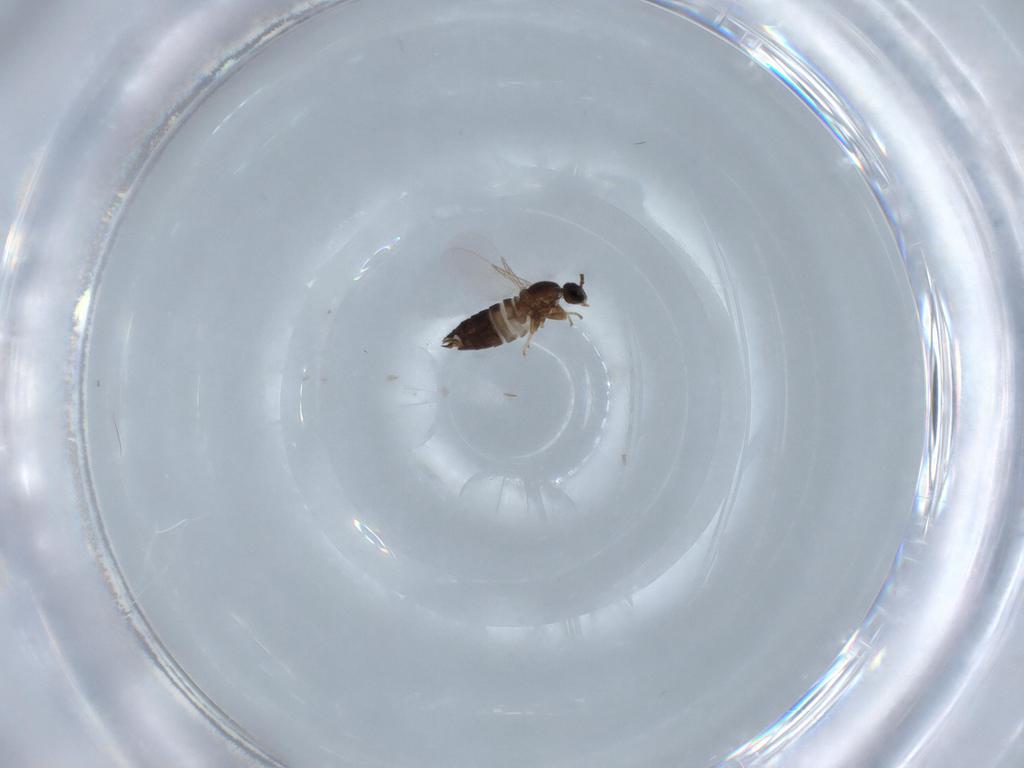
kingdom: Animalia
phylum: Arthropoda
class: Insecta
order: Diptera
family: Scatopsidae
